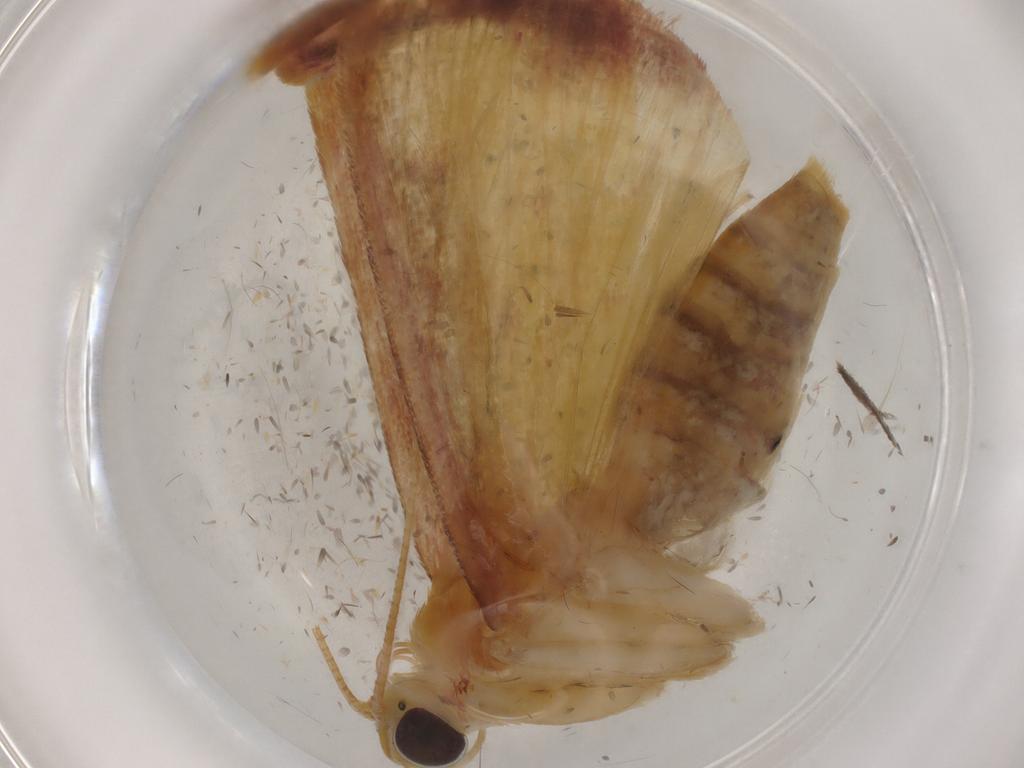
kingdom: Animalia
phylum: Arthropoda
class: Insecta
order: Lepidoptera
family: Crambidae
